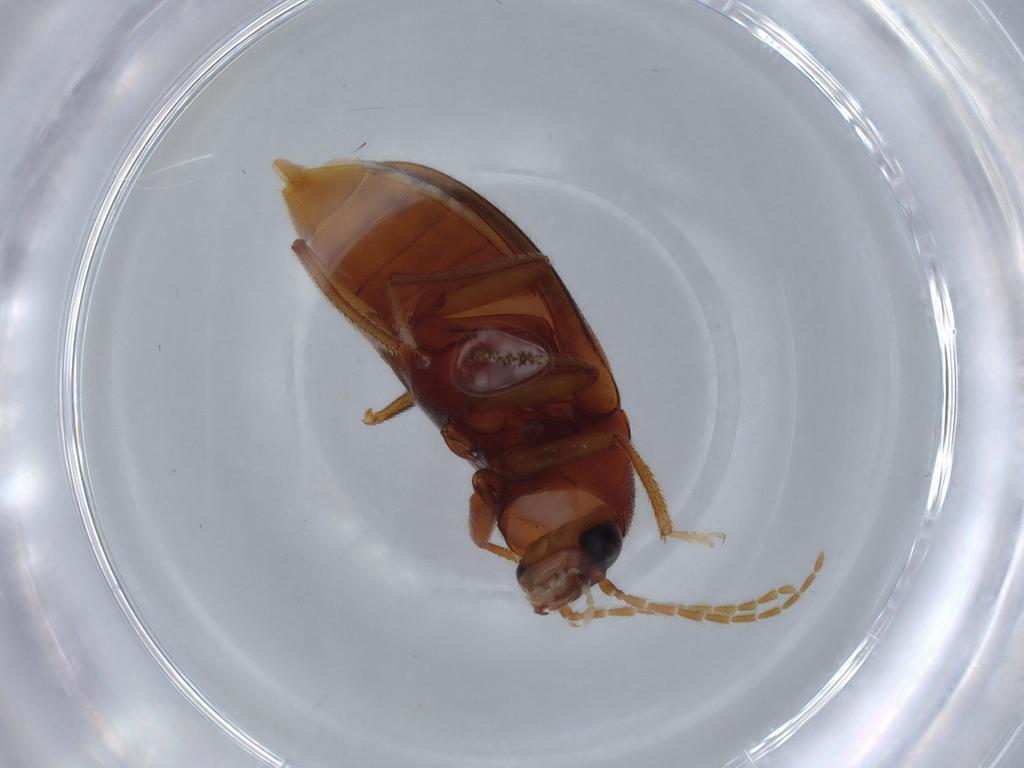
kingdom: Animalia
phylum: Arthropoda
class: Insecta
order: Coleoptera
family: Ptilodactylidae
